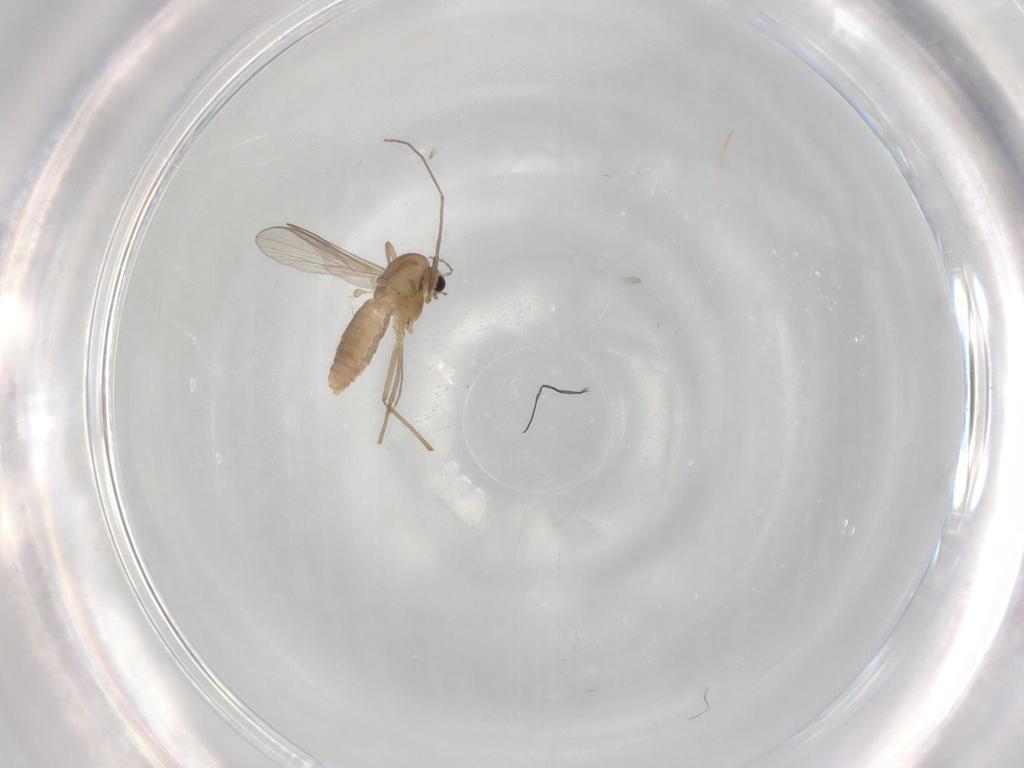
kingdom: Animalia
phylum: Arthropoda
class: Insecta
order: Diptera
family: Chironomidae
